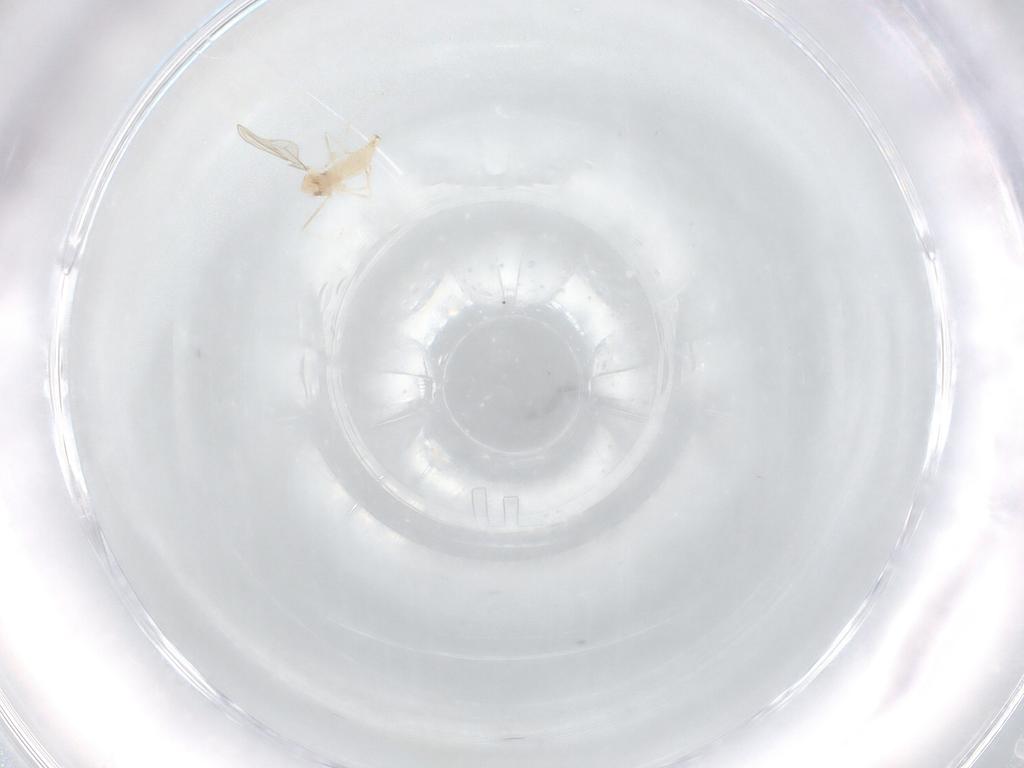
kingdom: Animalia
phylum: Arthropoda
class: Insecta
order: Diptera
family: Cecidomyiidae
